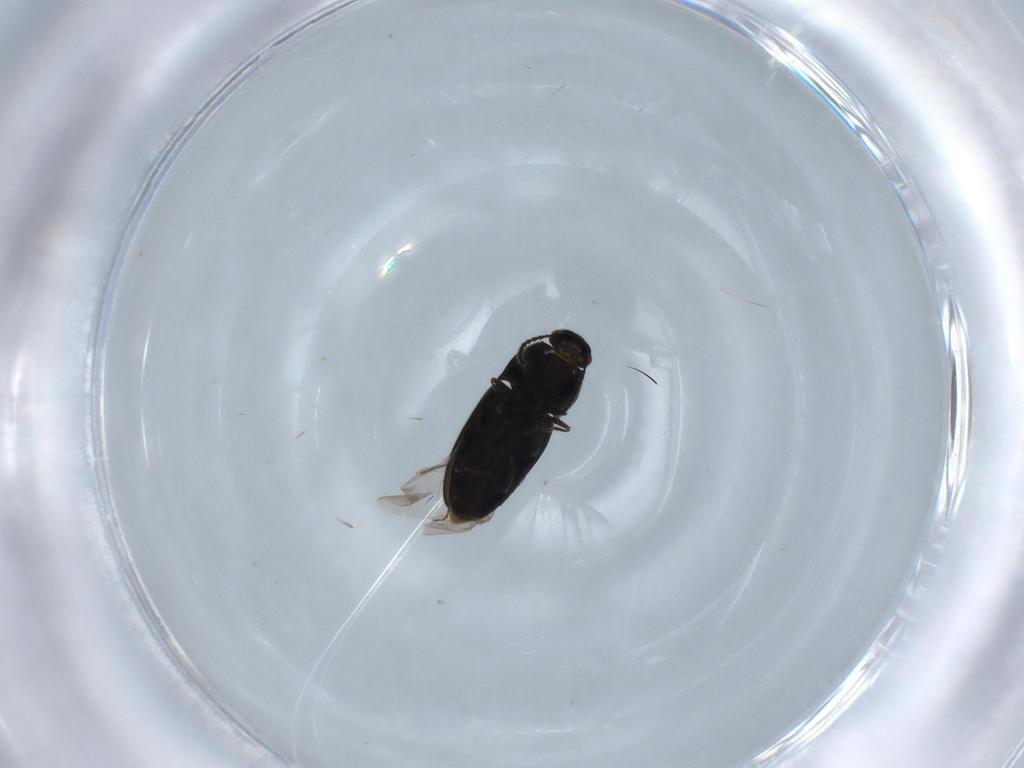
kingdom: Animalia
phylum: Arthropoda
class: Insecta
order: Coleoptera
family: Elateridae
